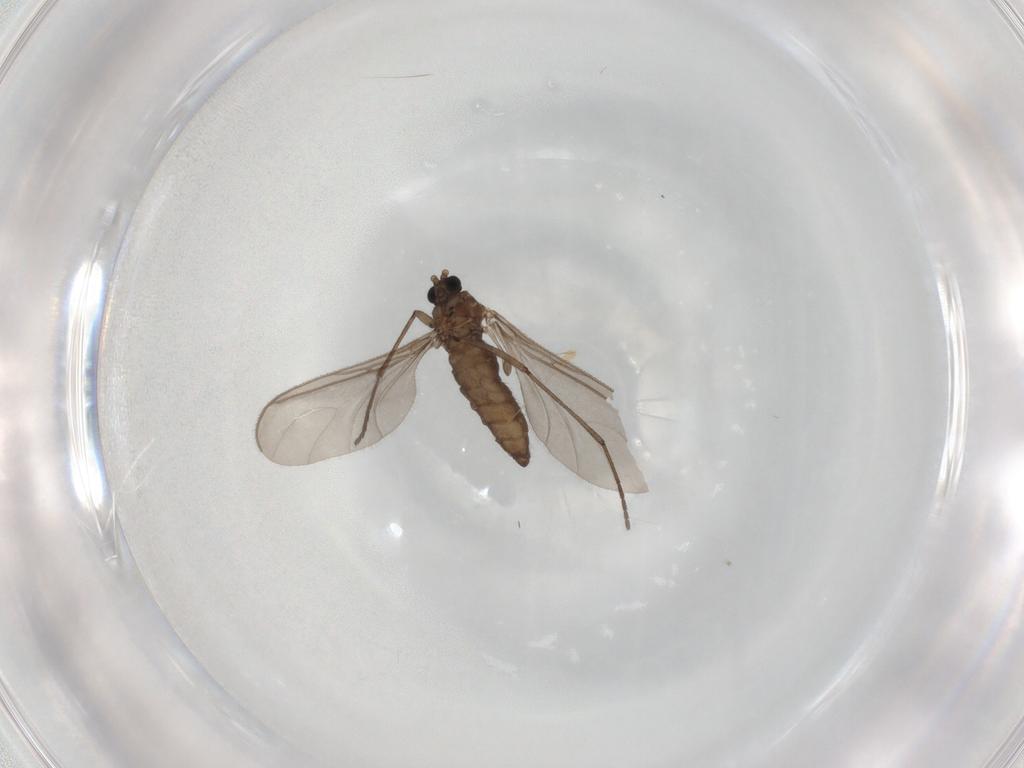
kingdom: Animalia
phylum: Arthropoda
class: Insecta
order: Diptera
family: Sciaridae
